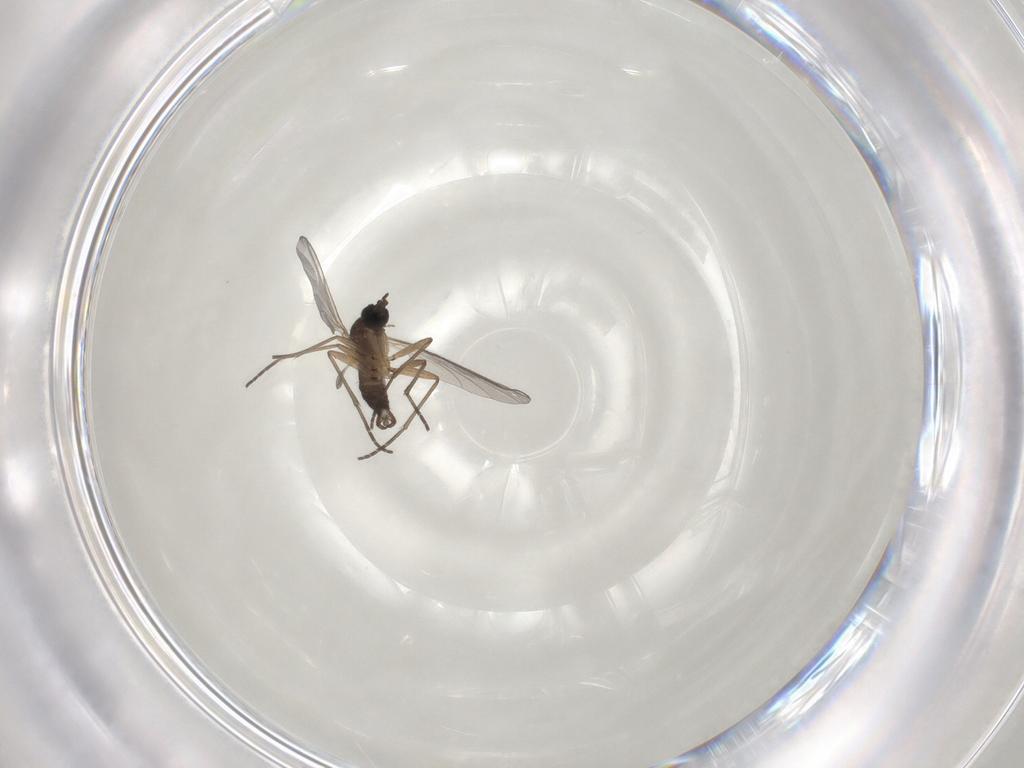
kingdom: Animalia
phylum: Arthropoda
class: Insecta
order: Diptera
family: Sciaridae
